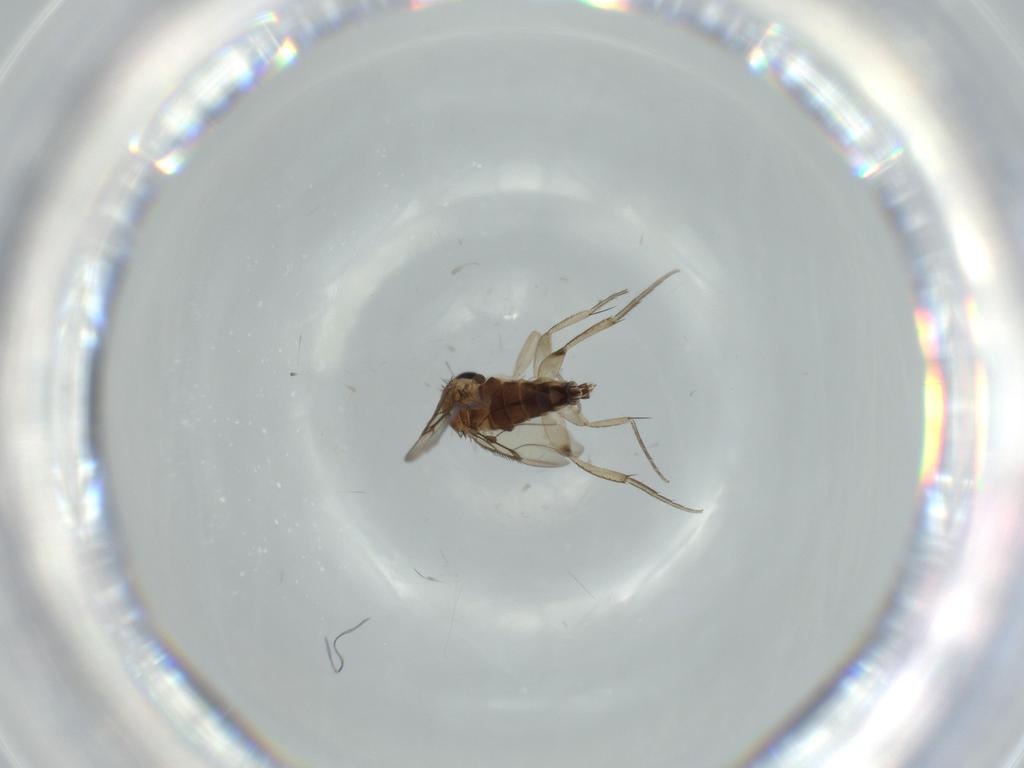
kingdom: Animalia
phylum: Arthropoda
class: Insecta
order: Diptera
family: Phoridae
